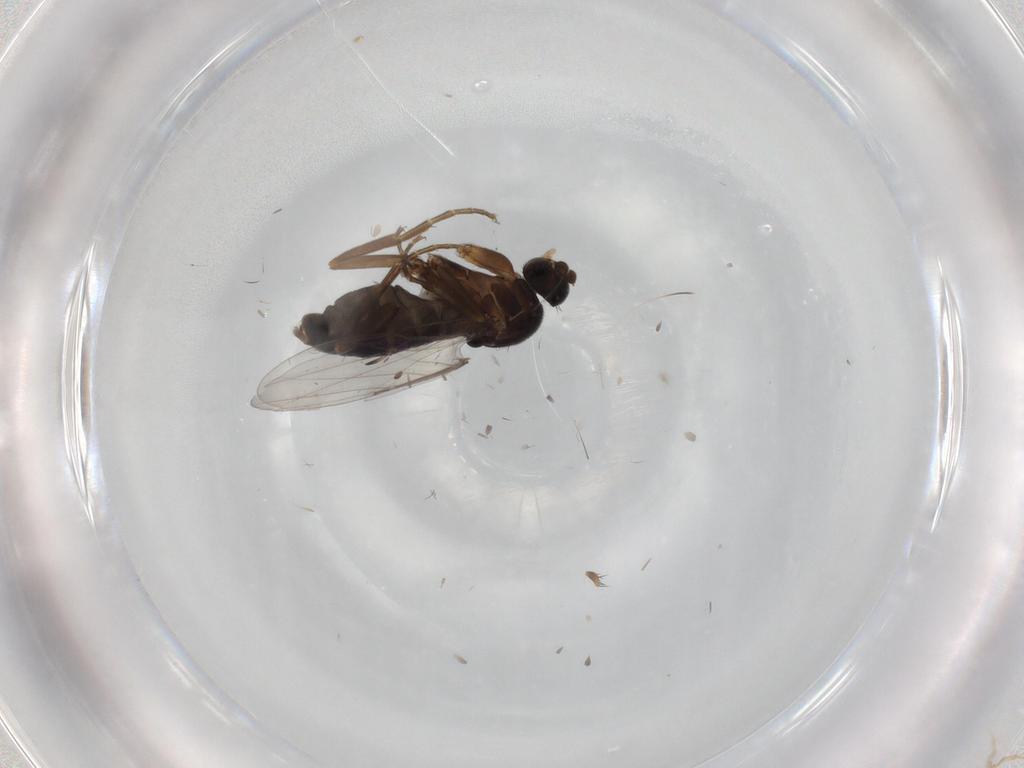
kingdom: Animalia
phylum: Arthropoda
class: Insecta
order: Diptera
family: Phoridae
